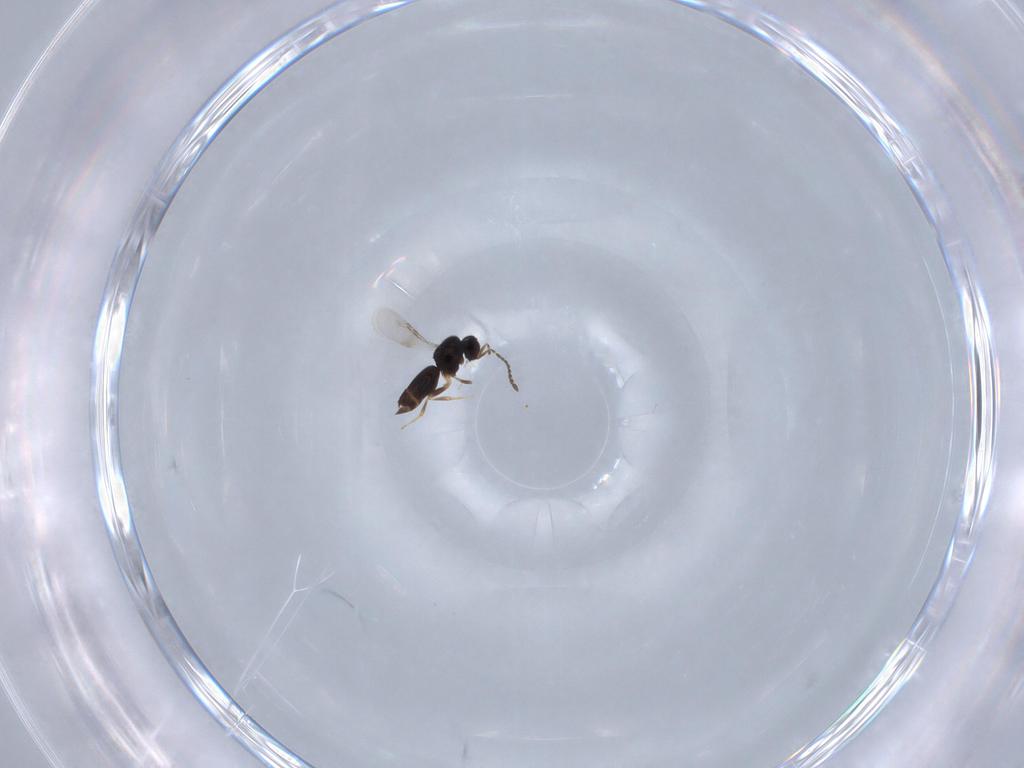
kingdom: Animalia
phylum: Arthropoda
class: Insecta
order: Hymenoptera
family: Ceraphronidae
